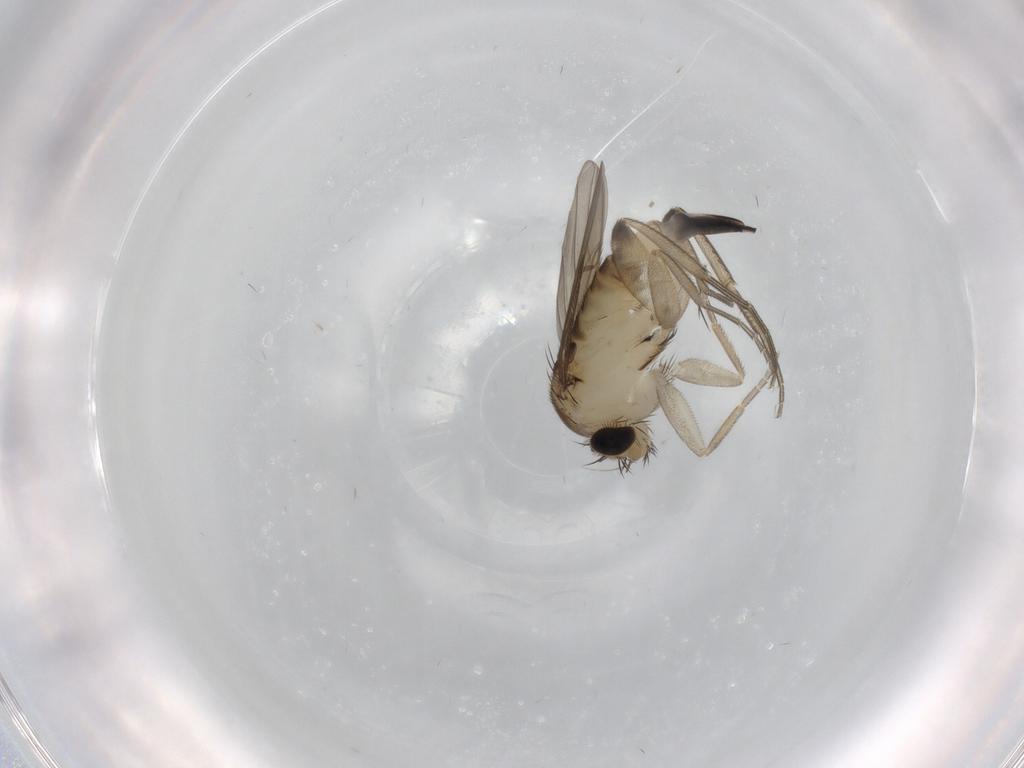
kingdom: Animalia
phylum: Arthropoda
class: Insecta
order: Diptera
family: Phoridae
